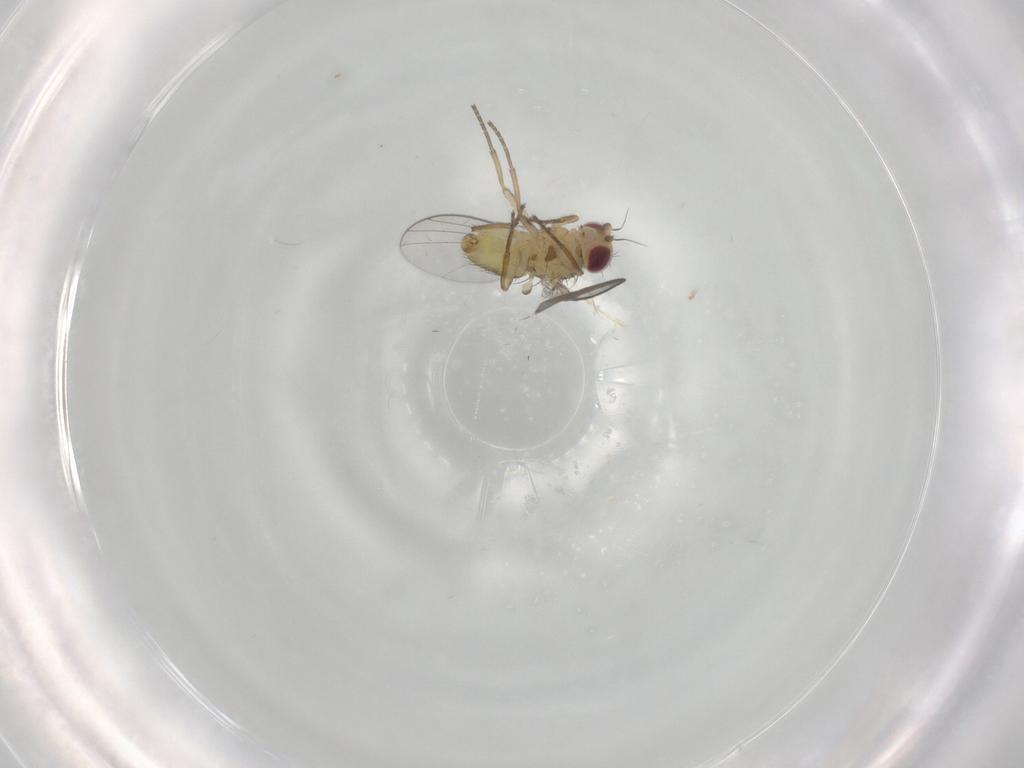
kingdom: Animalia
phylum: Arthropoda
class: Insecta
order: Diptera
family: Agromyzidae
